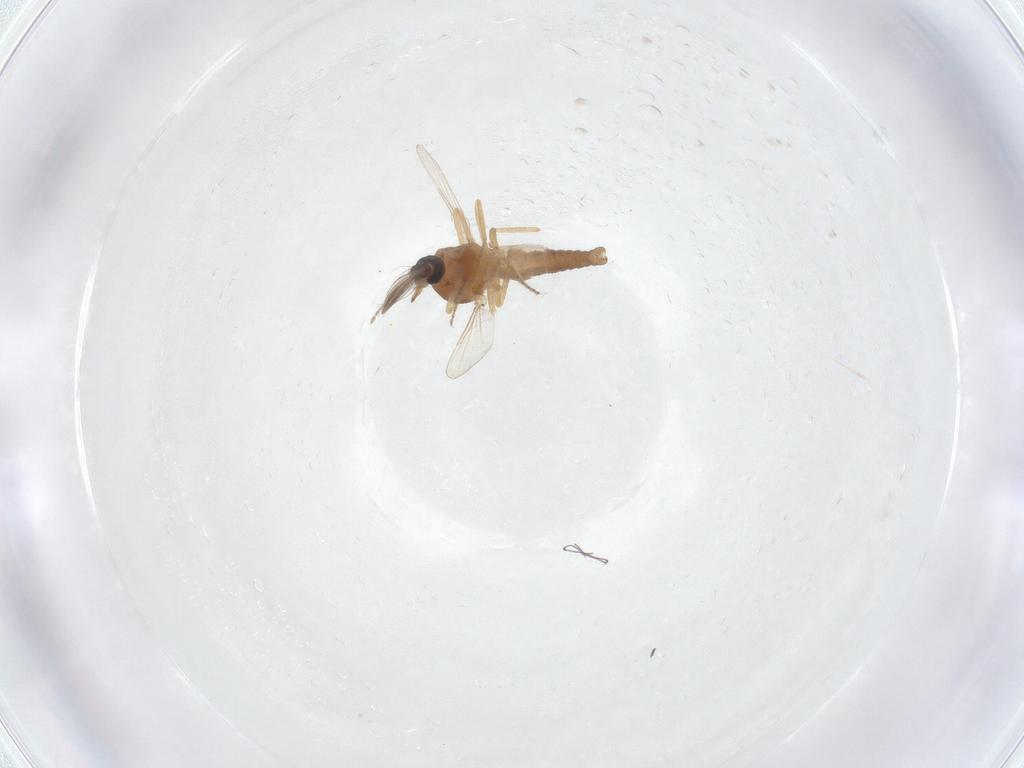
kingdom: Animalia
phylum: Arthropoda
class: Insecta
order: Diptera
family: Ceratopogonidae
